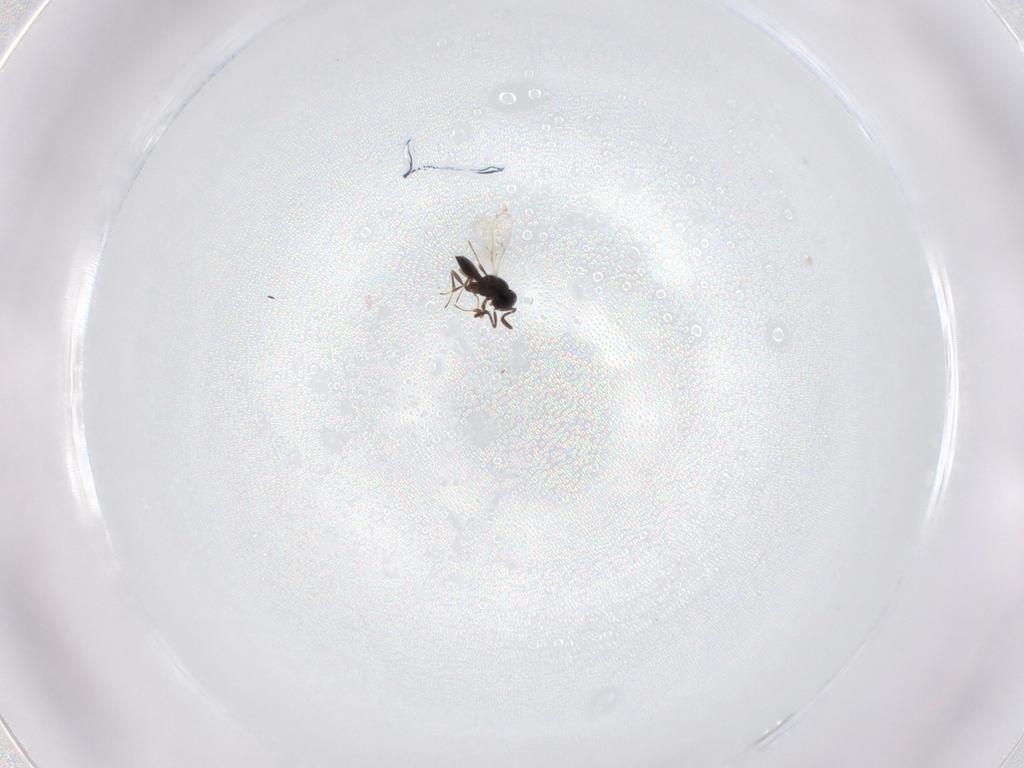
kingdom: Animalia
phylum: Arthropoda
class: Insecta
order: Hymenoptera
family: Scelionidae
